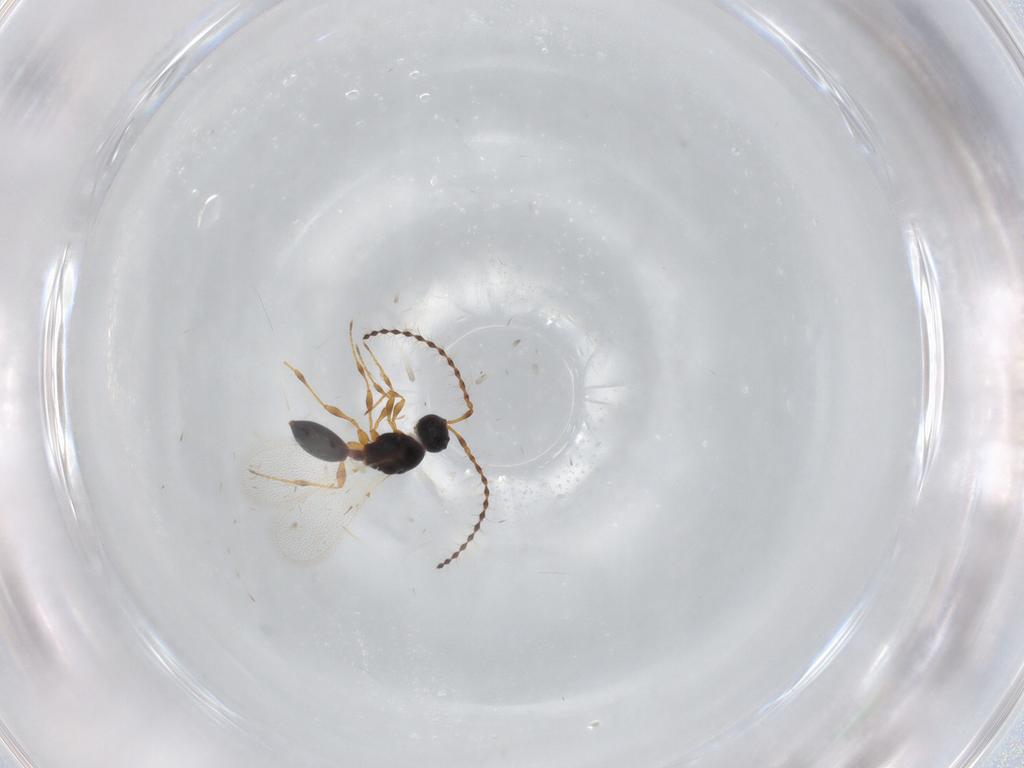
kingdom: Animalia
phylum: Arthropoda
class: Insecta
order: Hymenoptera
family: Diapriidae
